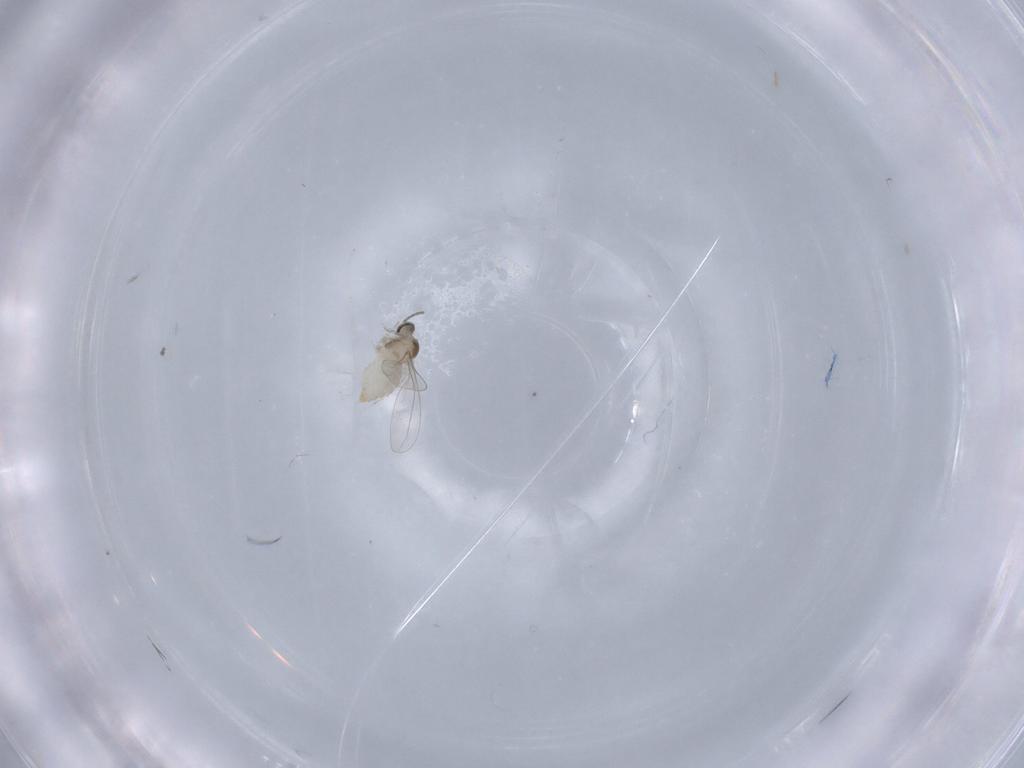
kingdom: Animalia
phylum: Arthropoda
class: Insecta
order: Diptera
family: Cecidomyiidae
